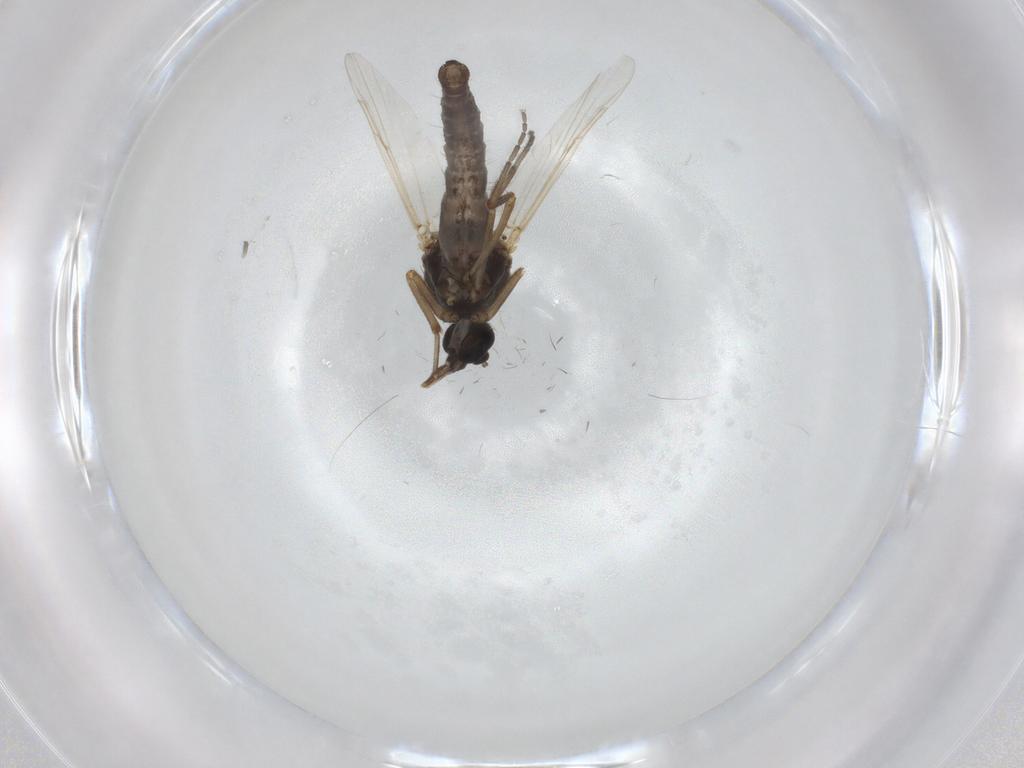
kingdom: Animalia
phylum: Arthropoda
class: Insecta
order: Diptera
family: Ceratopogonidae
